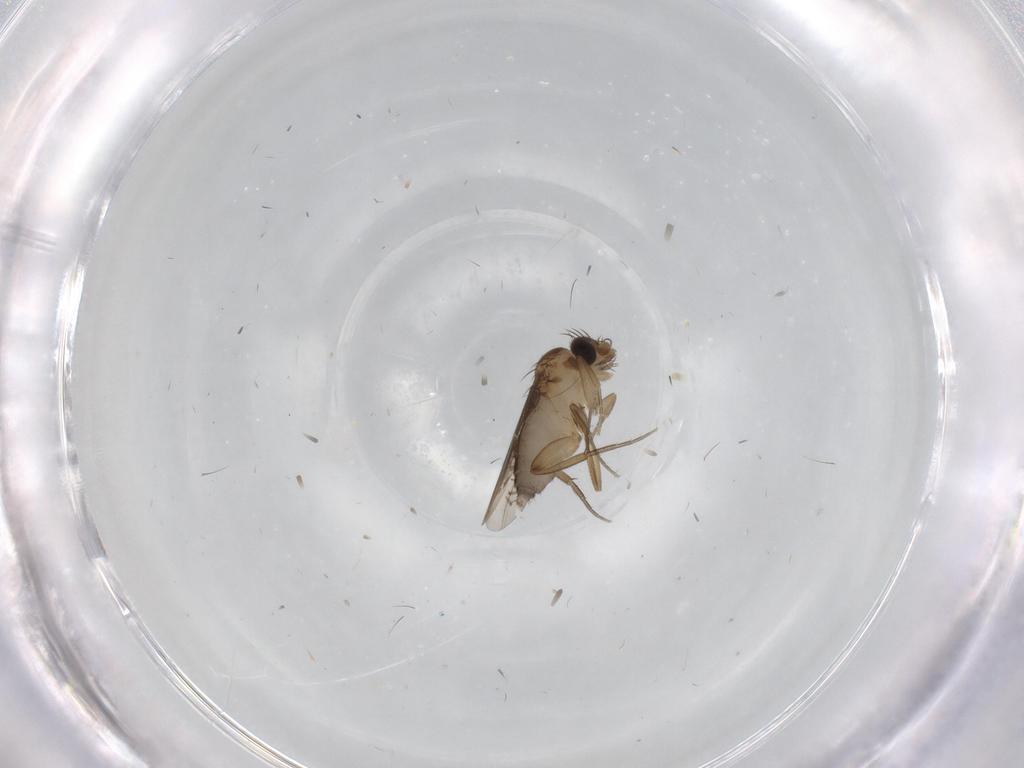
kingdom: Animalia
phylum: Arthropoda
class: Insecta
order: Diptera
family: Phoridae
